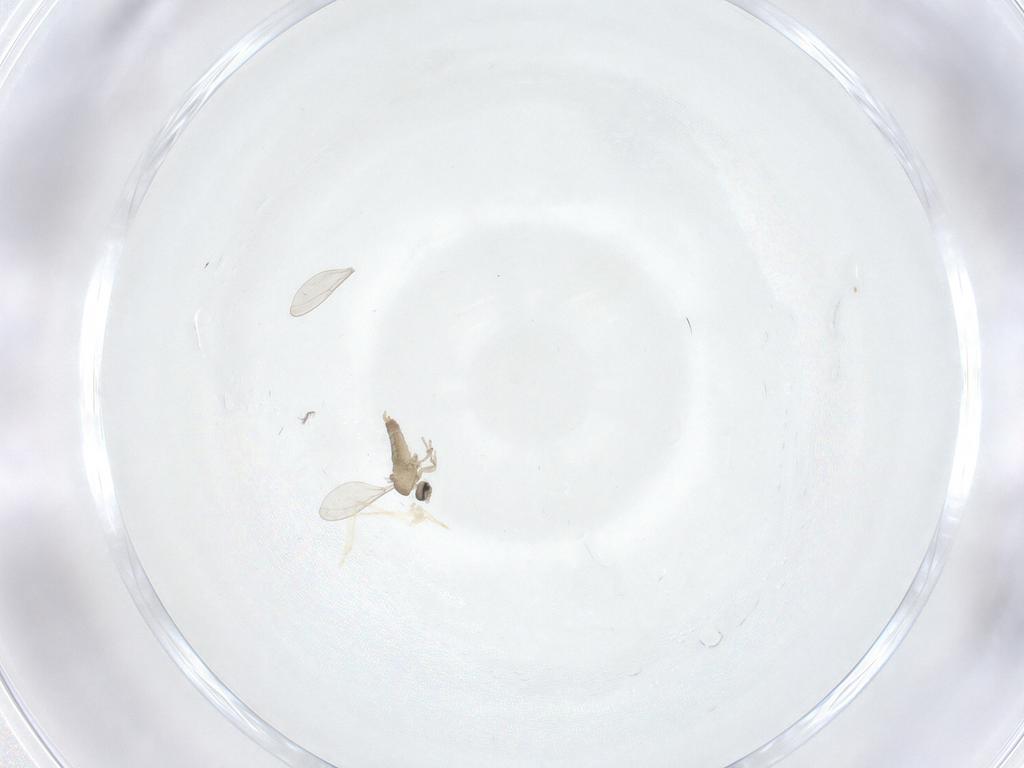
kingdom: Animalia
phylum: Arthropoda
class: Insecta
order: Diptera
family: Cecidomyiidae
